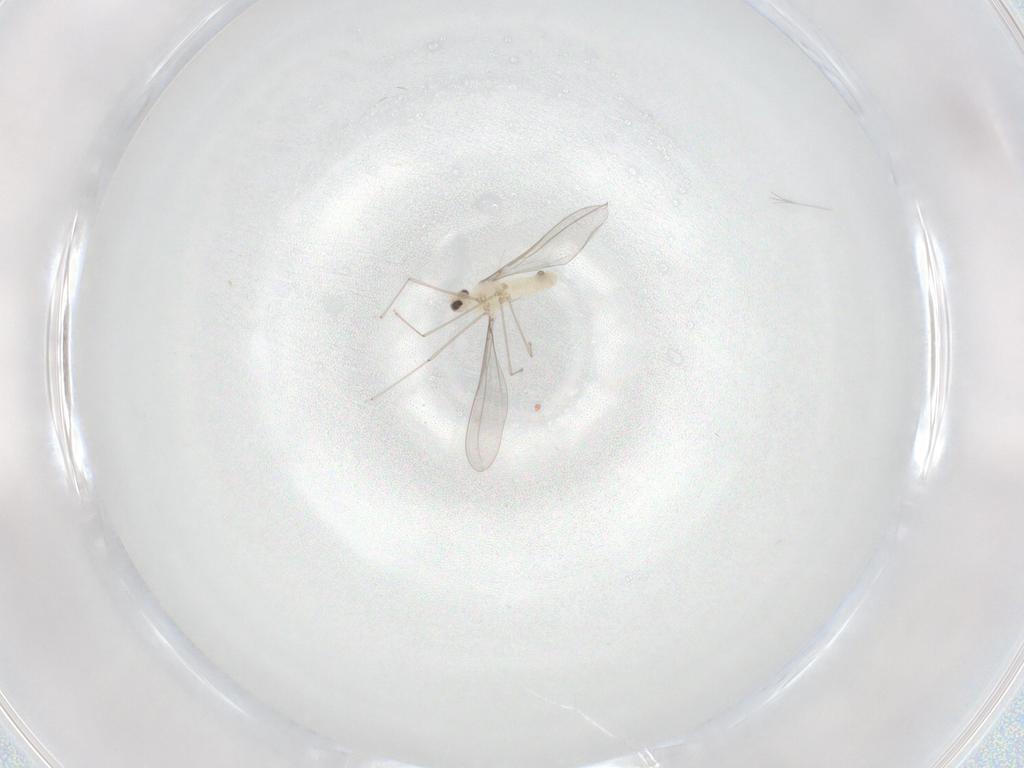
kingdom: Animalia
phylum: Arthropoda
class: Insecta
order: Diptera
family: Cecidomyiidae
